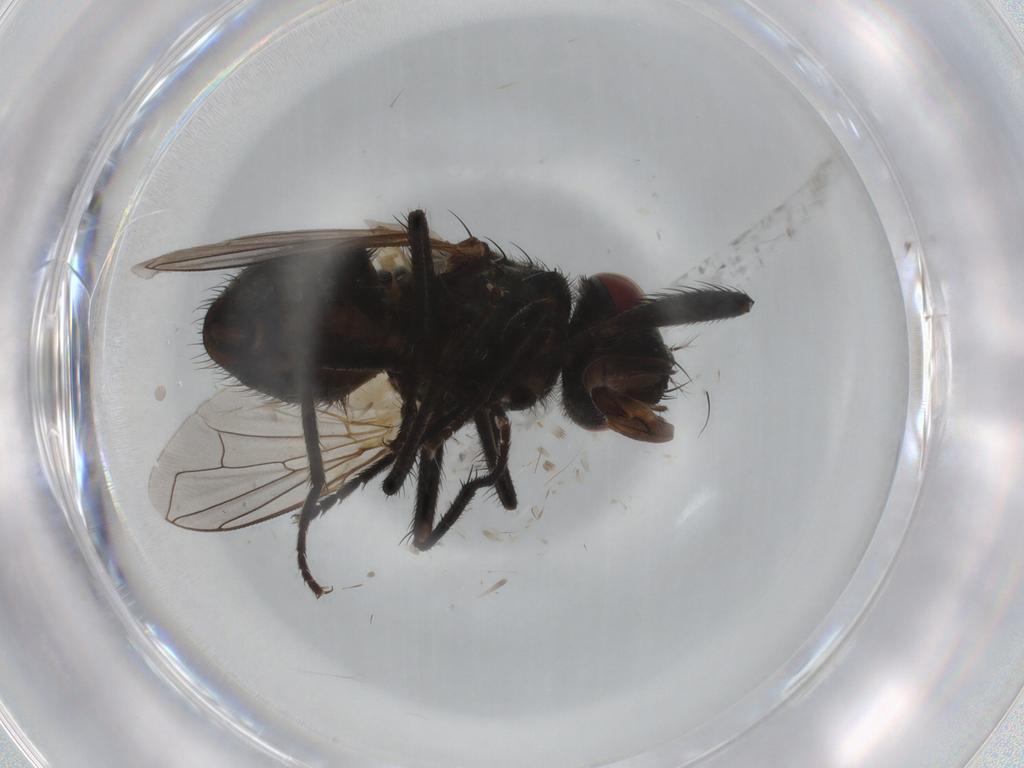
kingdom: Animalia
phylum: Arthropoda
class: Insecta
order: Diptera
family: Muscidae
